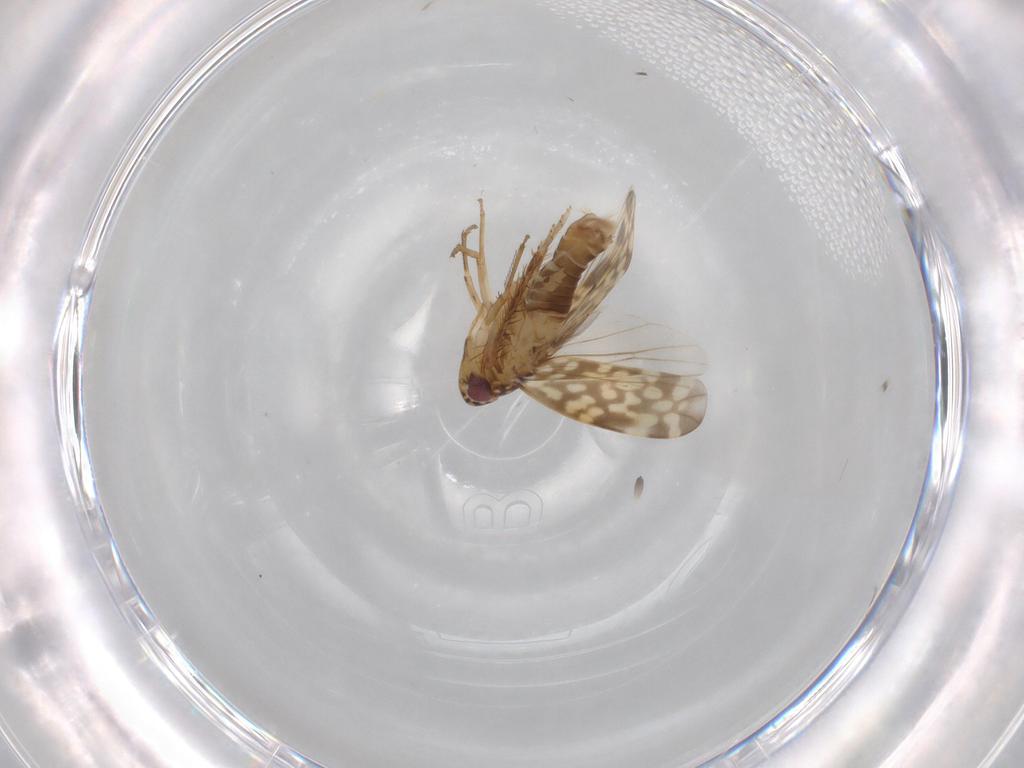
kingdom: Animalia
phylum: Arthropoda
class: Insecta
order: Hemiptera
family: Cicadellidae
